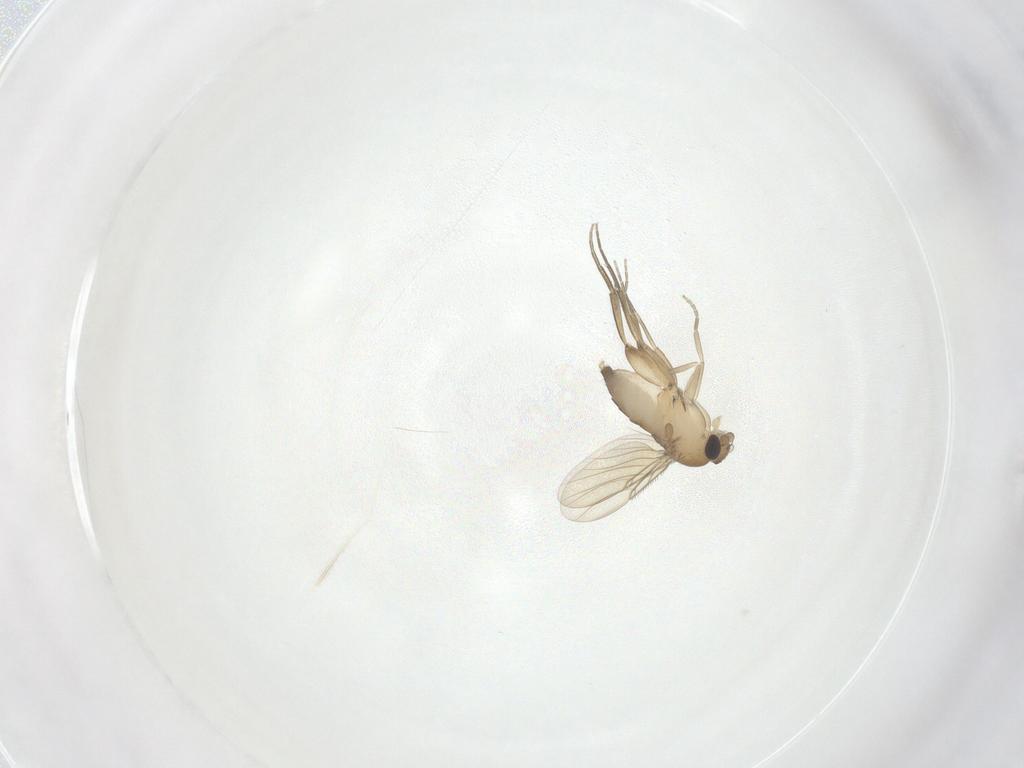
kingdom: Animalia
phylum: Arthropoda
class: Insecta
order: Diptera
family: Phoridae
